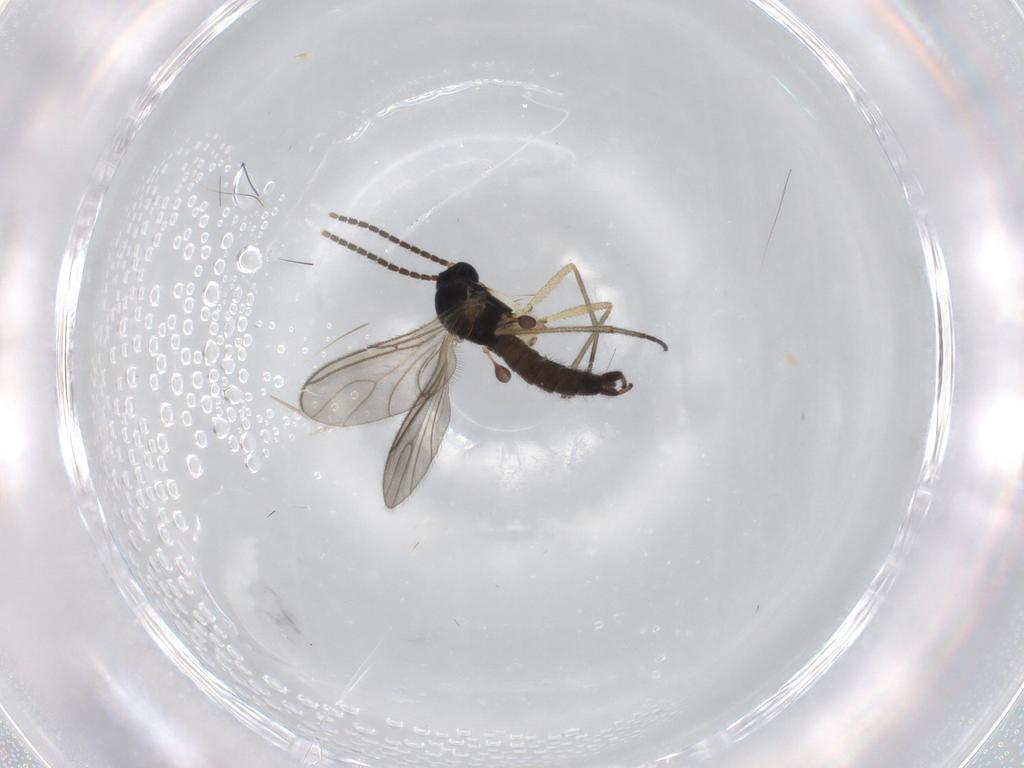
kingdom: Animalia
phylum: Arthropoda
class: Insecta
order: Diptera
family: Sciaridae
